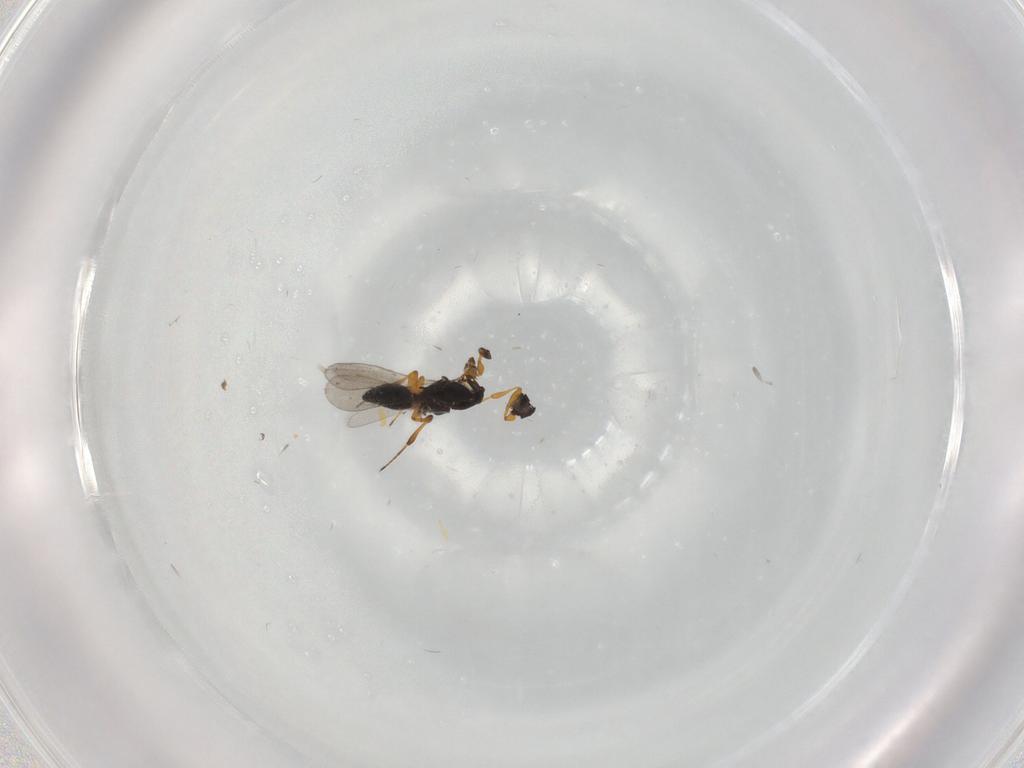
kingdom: Animalia
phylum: Arthropoda
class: Insecta
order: Hymenoptera
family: Platygastridae
